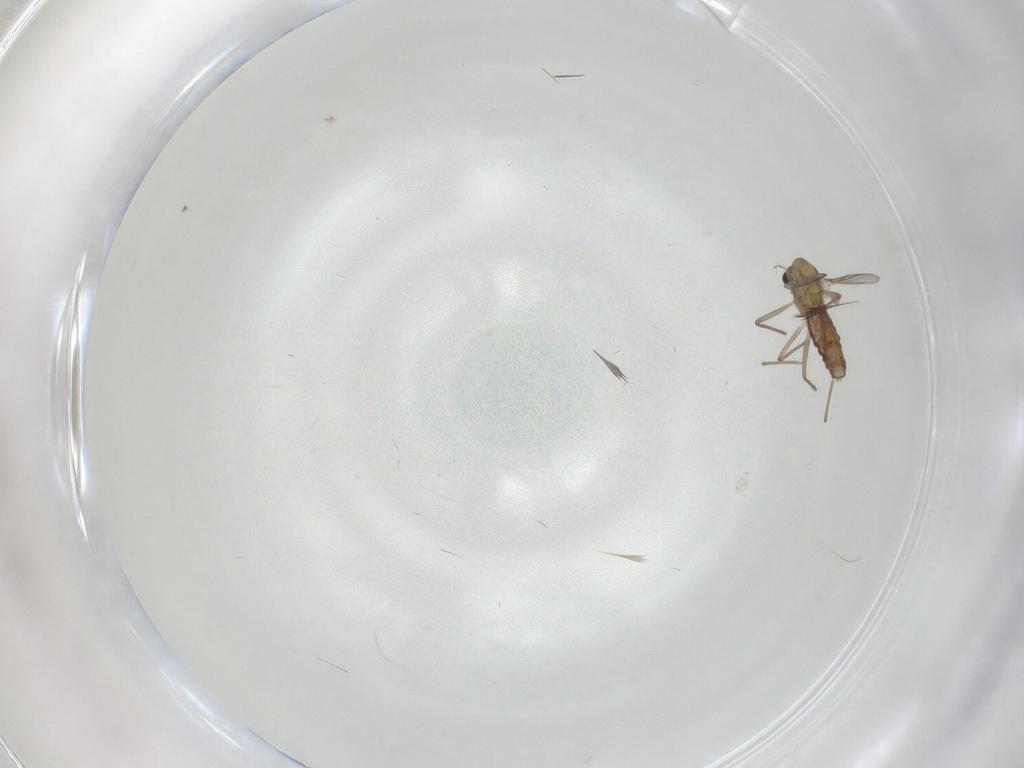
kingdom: Animalia
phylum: Arthropoda
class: Insecta
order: Diptera
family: Chironomidae
